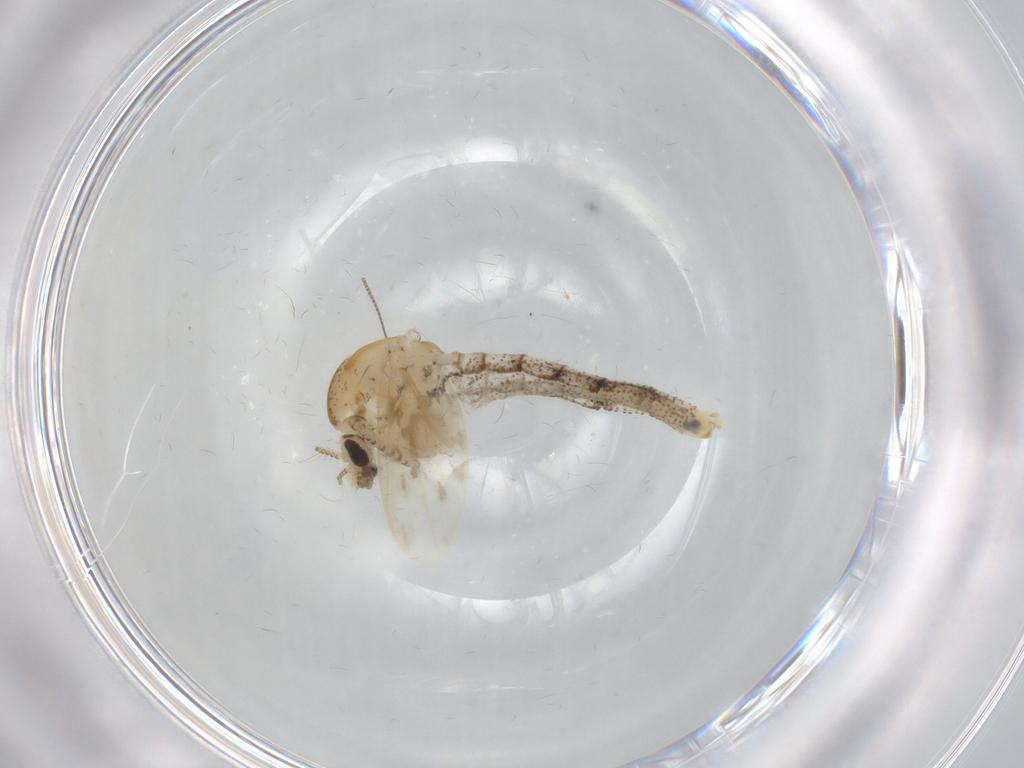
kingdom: Animalia
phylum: Arthropoda
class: Insecta
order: Diptera
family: Chaoboridae
